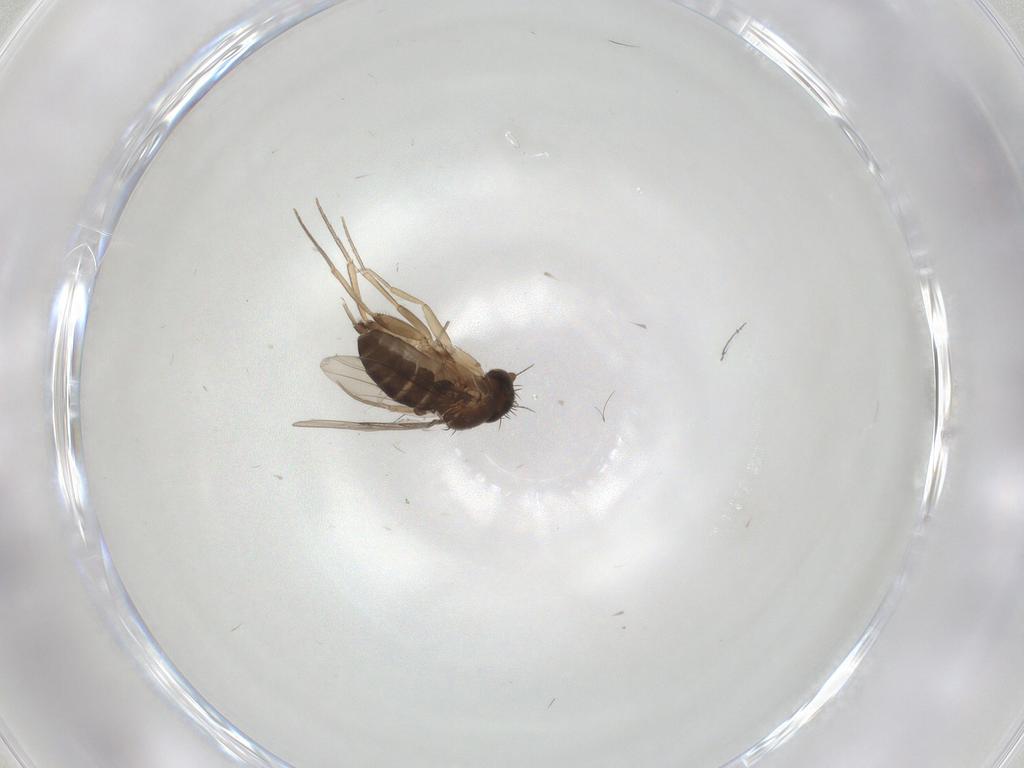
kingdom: Animalia
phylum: Arthropoda
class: Insecta
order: Diptera
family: Sciaridae
